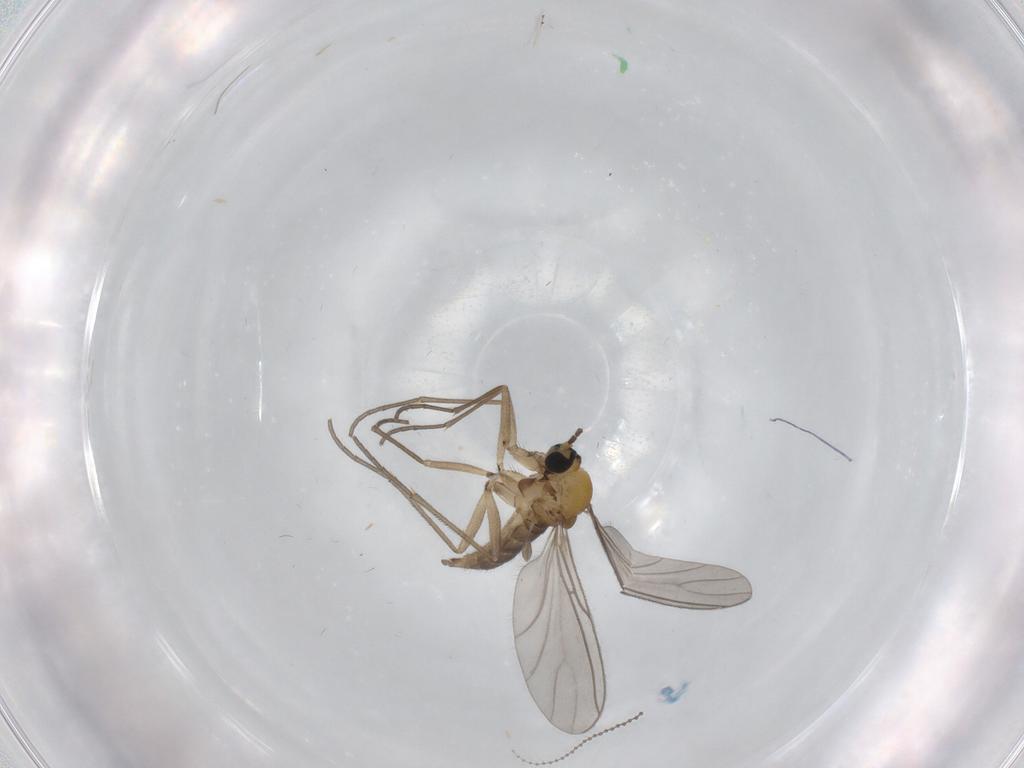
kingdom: Animalia
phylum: Arthropoda
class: Insecta
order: Diptera
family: Sciaridae
